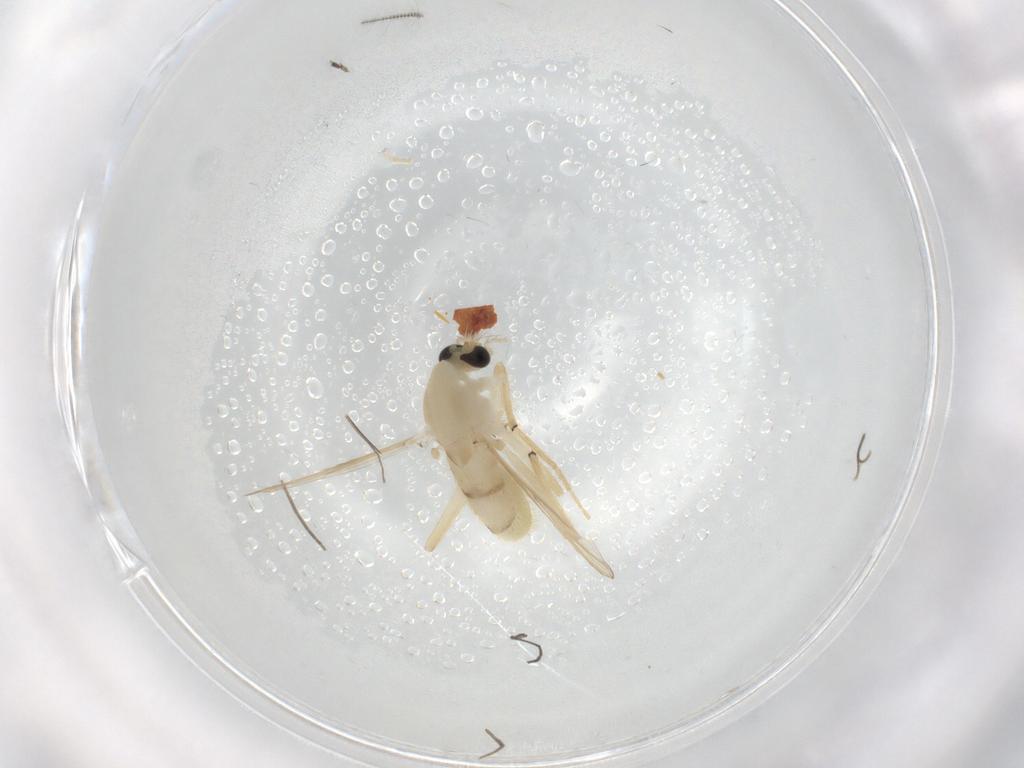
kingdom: Animalia
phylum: Arthropoda
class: Insecta
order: Diptera
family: Chironomidae
